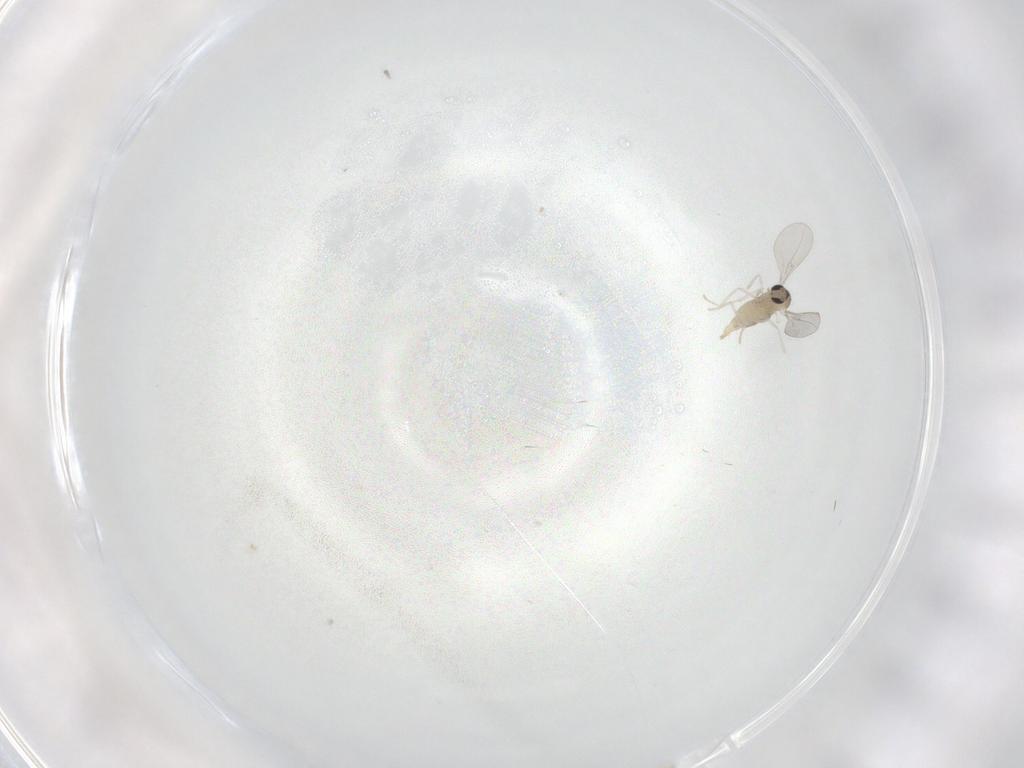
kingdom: Animalia
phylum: Arthropoda
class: Insecta
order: Diptera
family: Cecidomyiidae
